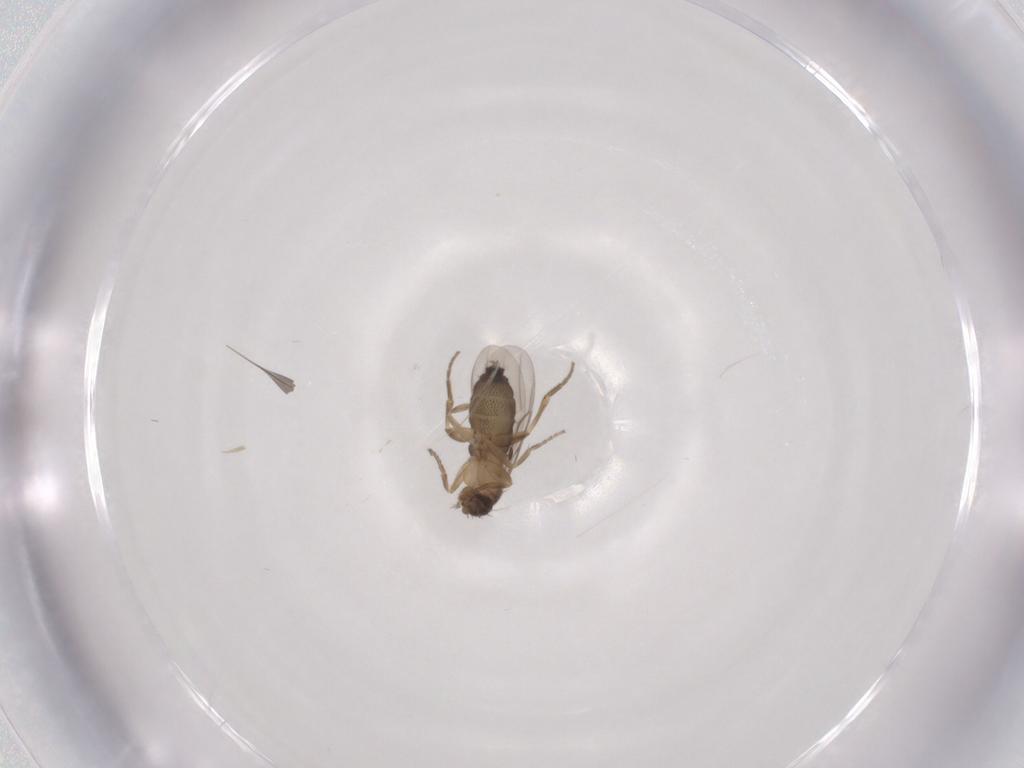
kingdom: Animalia
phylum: Arthropoda
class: Insecta
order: Diptera
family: Phoridae
